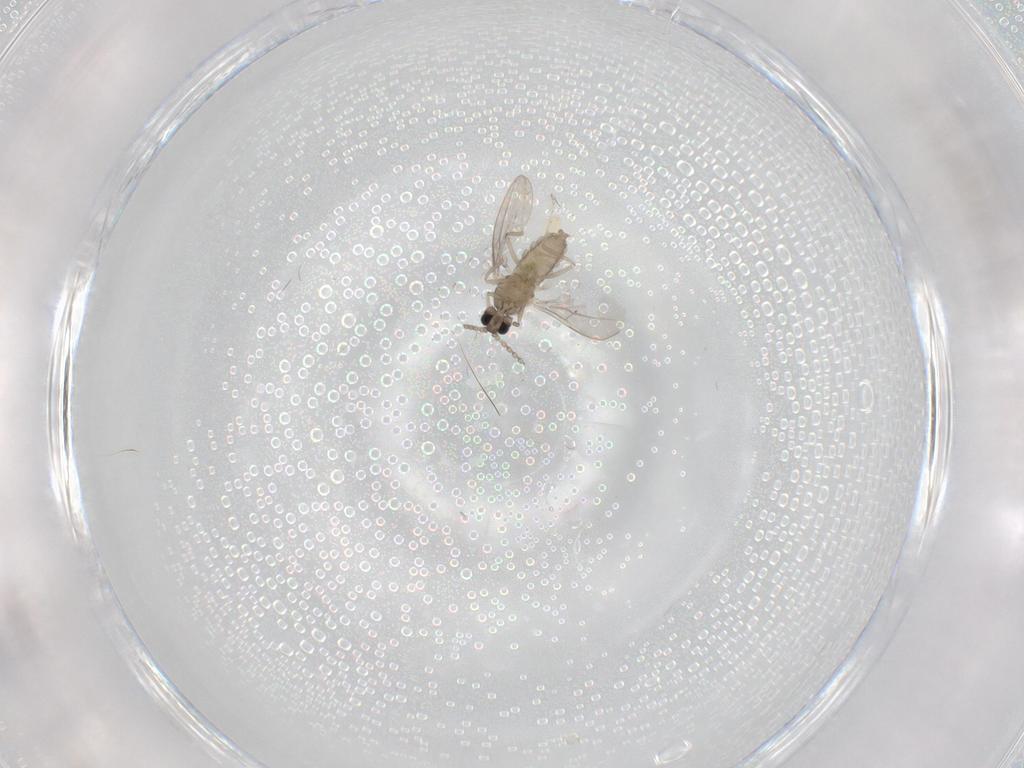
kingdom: Animalia
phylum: Arthropoda
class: Insecta
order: Diptera
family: Cecidomyiidae
